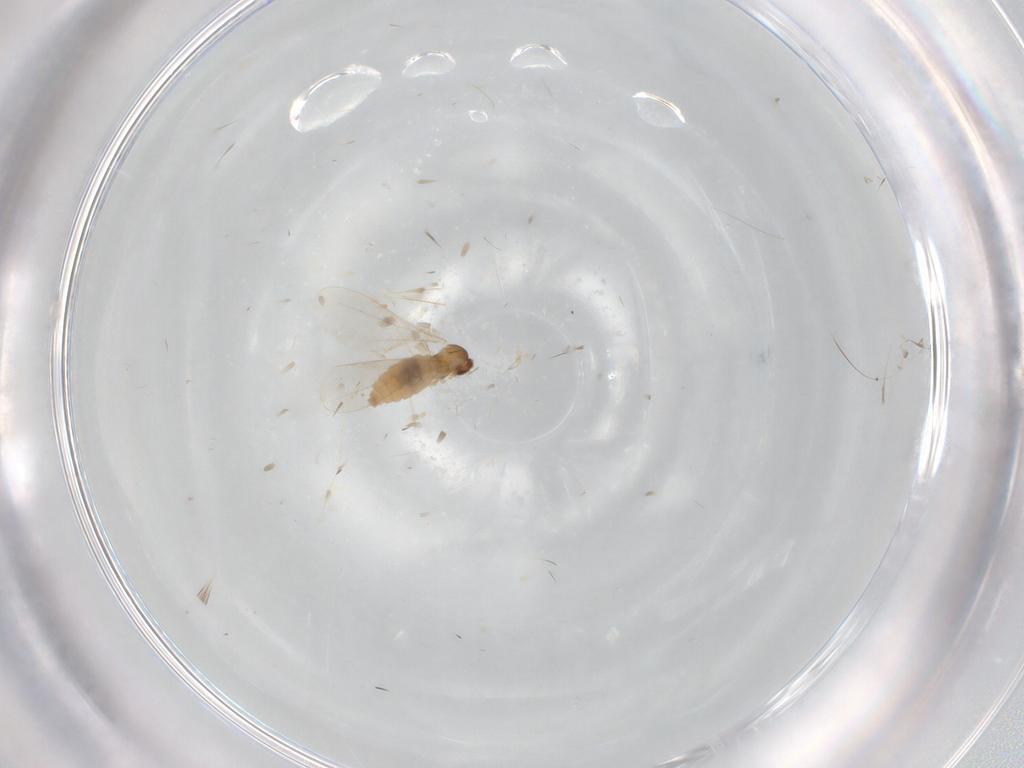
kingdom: Animalia
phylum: Arthropoda
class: Insecta
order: Diptera
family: Cecidomyiidae
